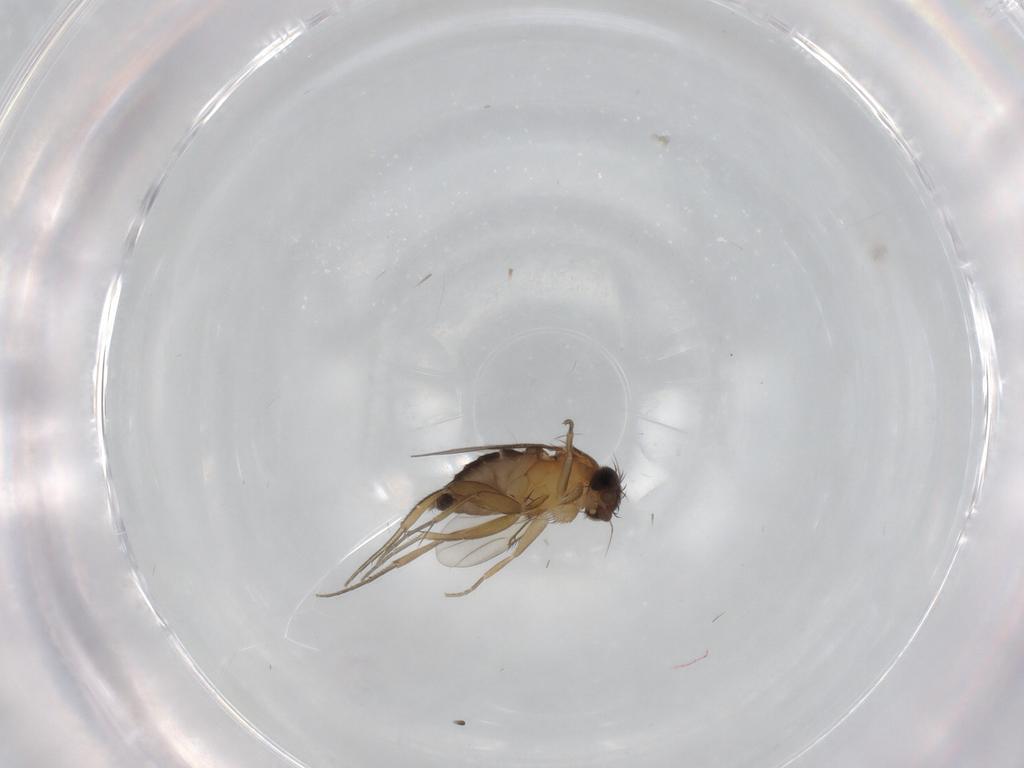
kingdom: Animalia
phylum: Arthropoda
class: Insecta
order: Diptera
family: Phoridae
